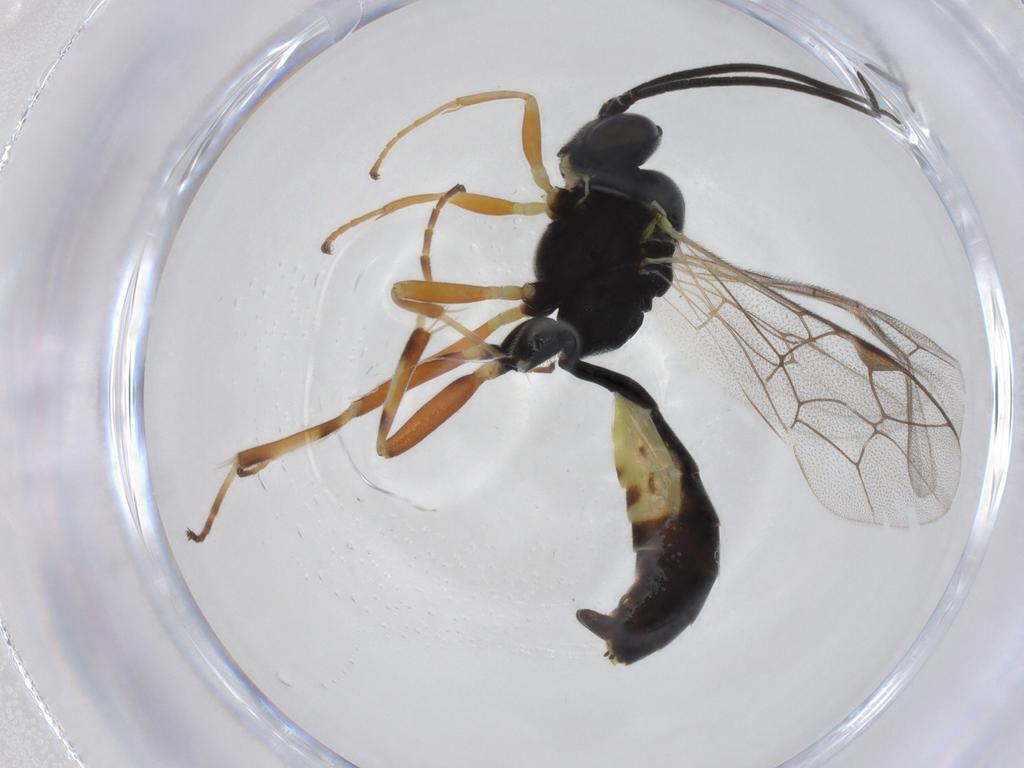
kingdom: Animalia
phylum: Arthropoda
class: Insecta
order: Hymenoptera
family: Ichneumonidae
